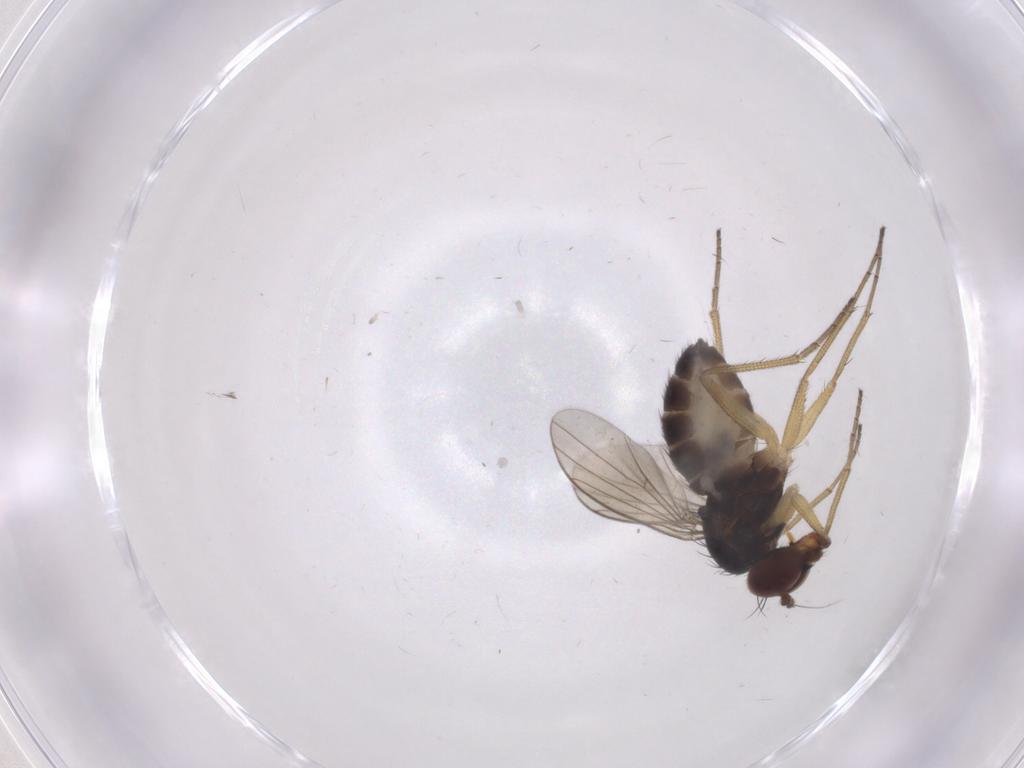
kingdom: Animalia
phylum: Arthropoda
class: Insecta
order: Diptera
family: Dolichopodidae
